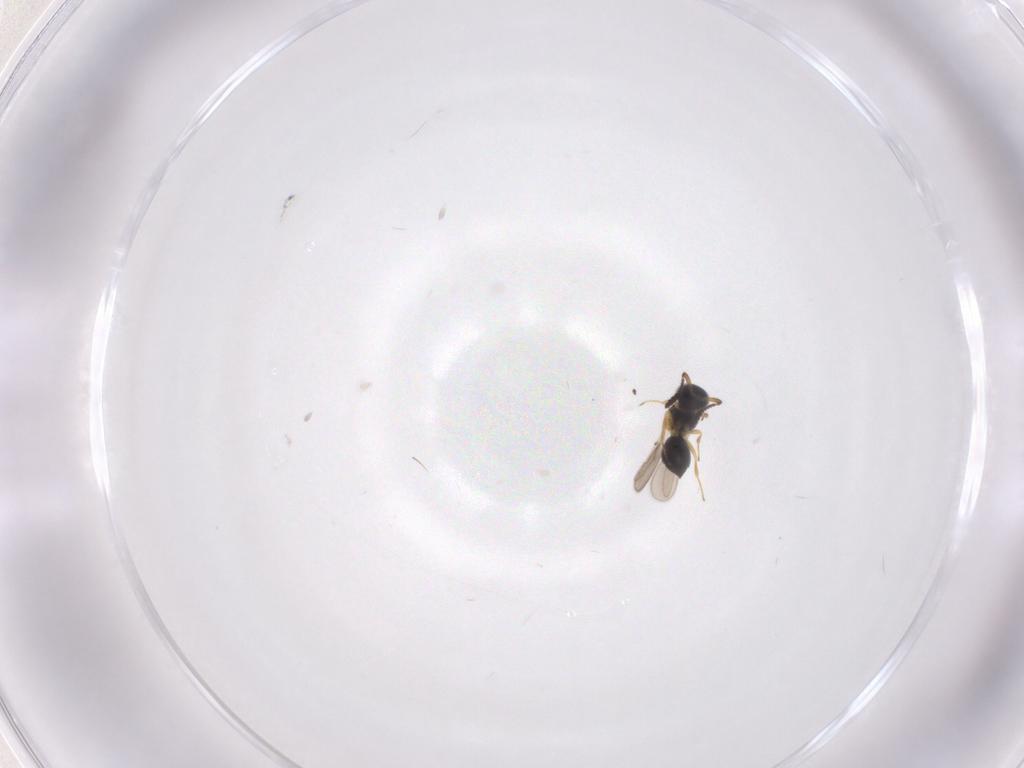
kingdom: Animalia
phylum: Arthropoda
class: Insecta
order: Hymenoptera
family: Scelionidae
